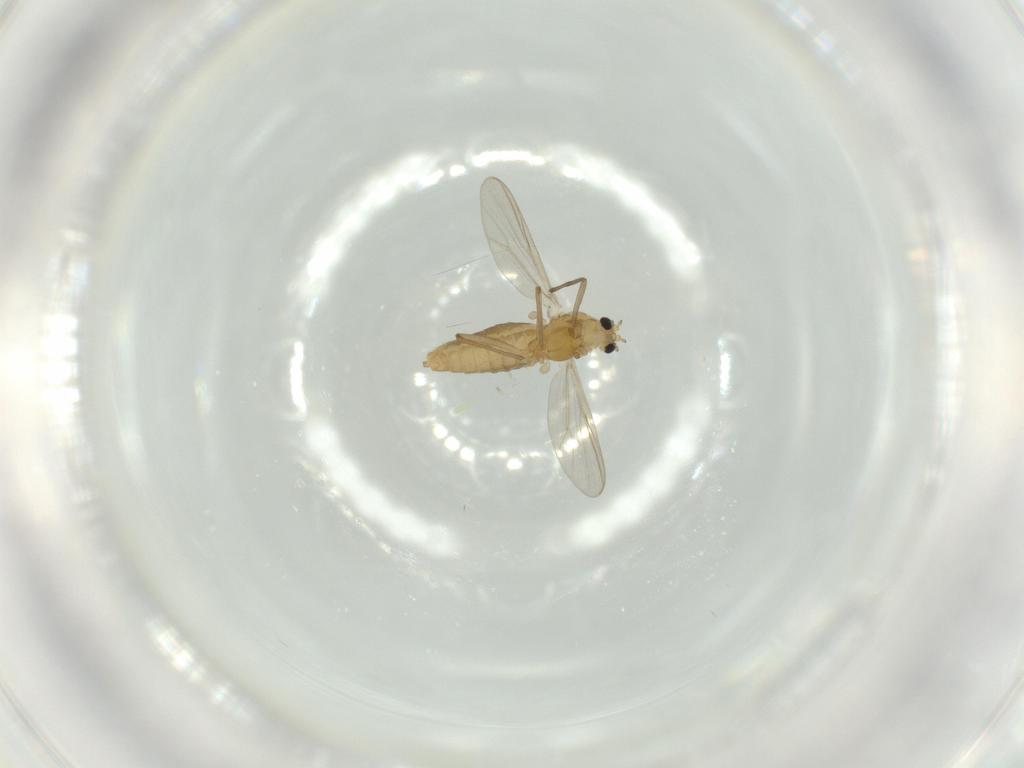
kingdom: Animalia
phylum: Arthropoda
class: Insecta
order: Diptera
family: Chironomidae
